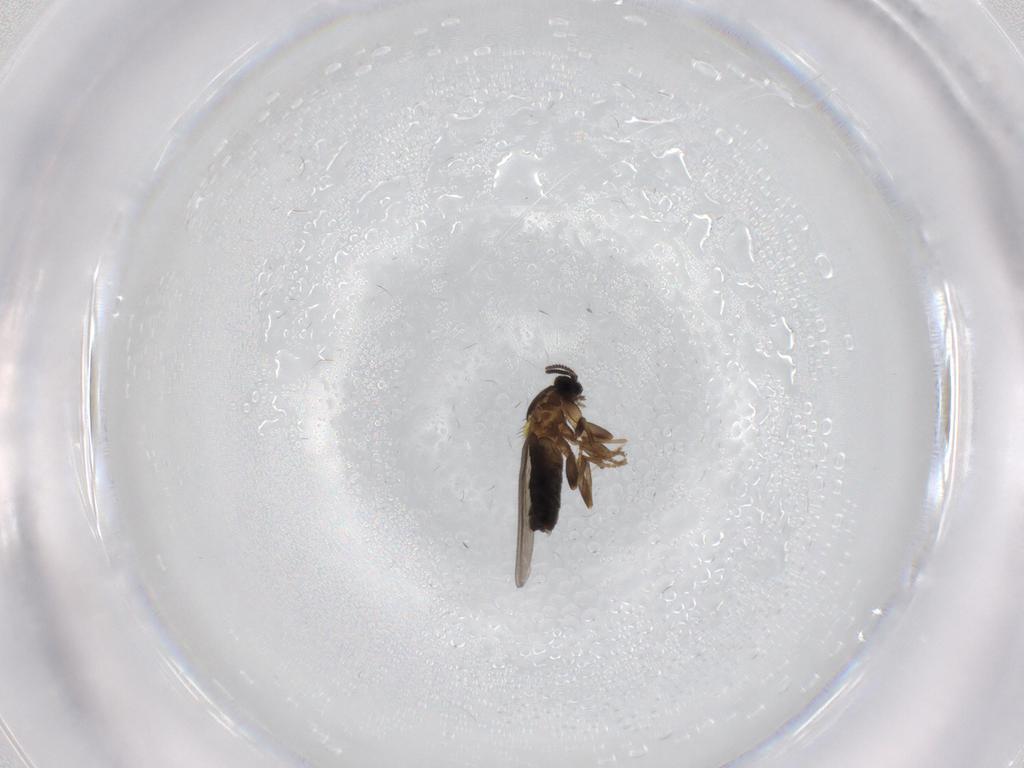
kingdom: Animalia
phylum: Arthropoda
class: Insecta
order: Diptera
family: Scatopsidae
